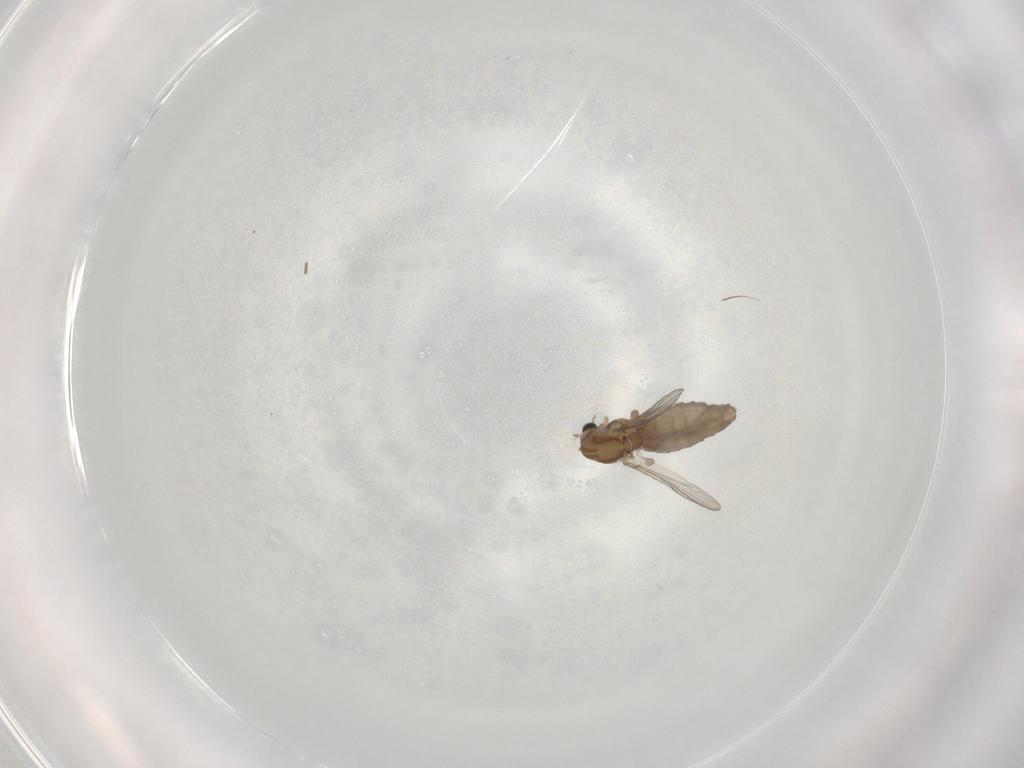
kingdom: Animalia
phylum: Arthropoda
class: Insecta
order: Diptera
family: Chironomidae
